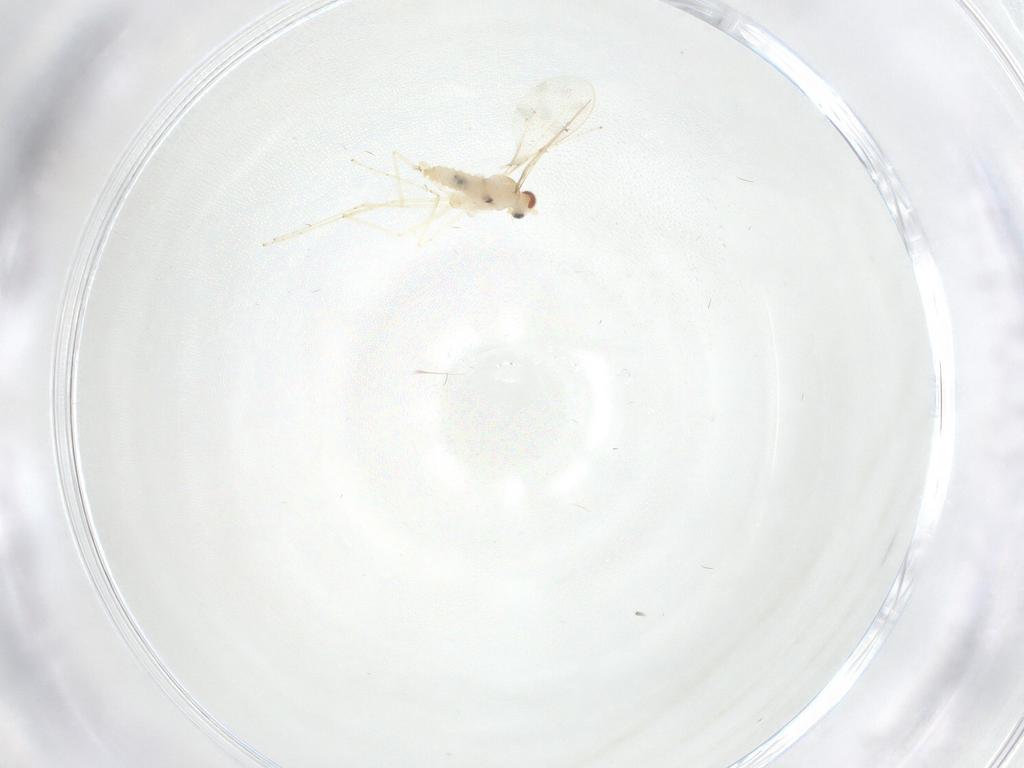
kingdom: Animalia
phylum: Arthropoda
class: Insecta
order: Diptera
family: Cecidomyiidae
